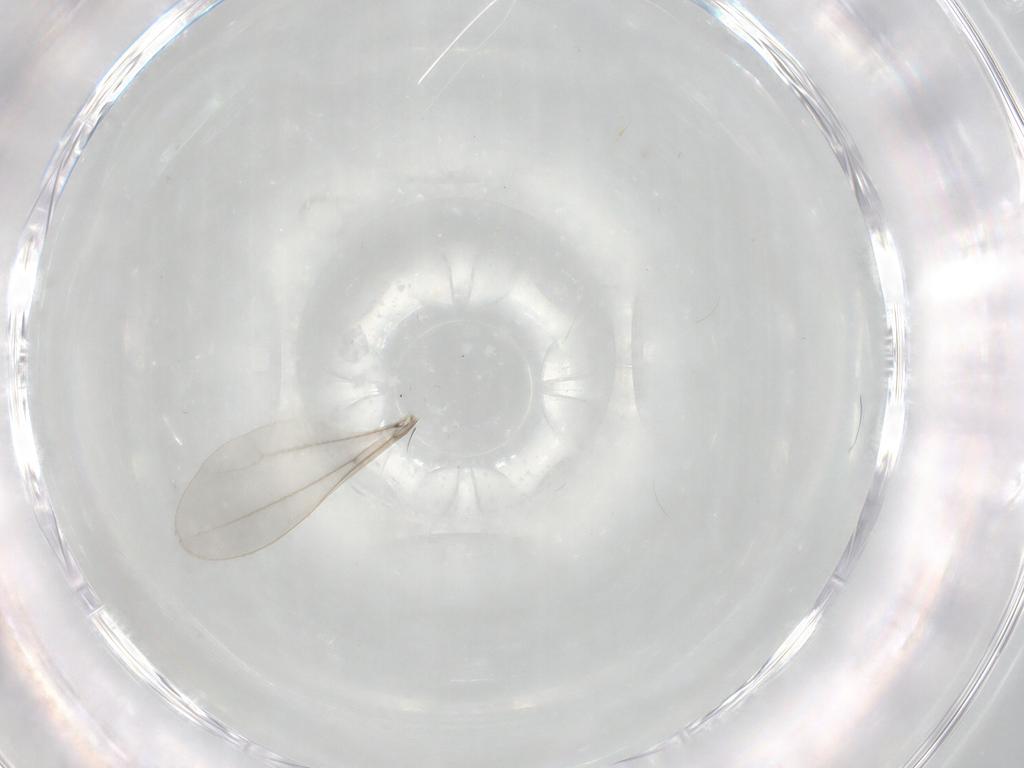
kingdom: Animalia
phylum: Arthropoda
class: Insecta
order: Diptera
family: Cecidomyiidae
